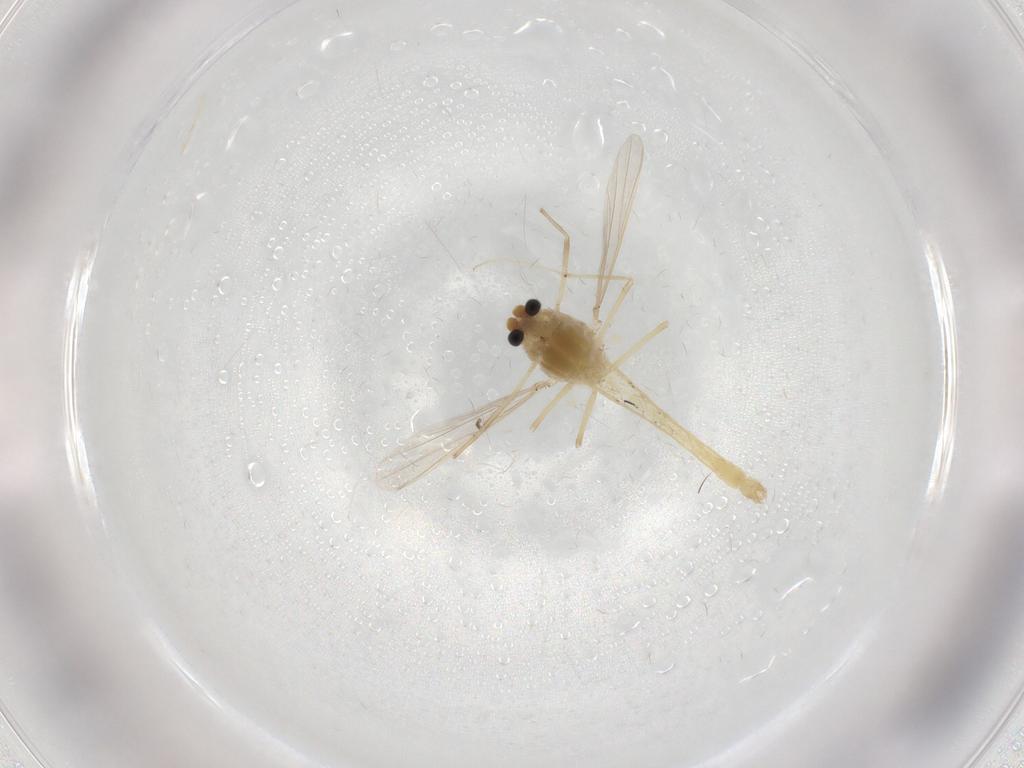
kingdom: Animalia
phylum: Arthropoda
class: Insecta
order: Diptera
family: Chironomidae
